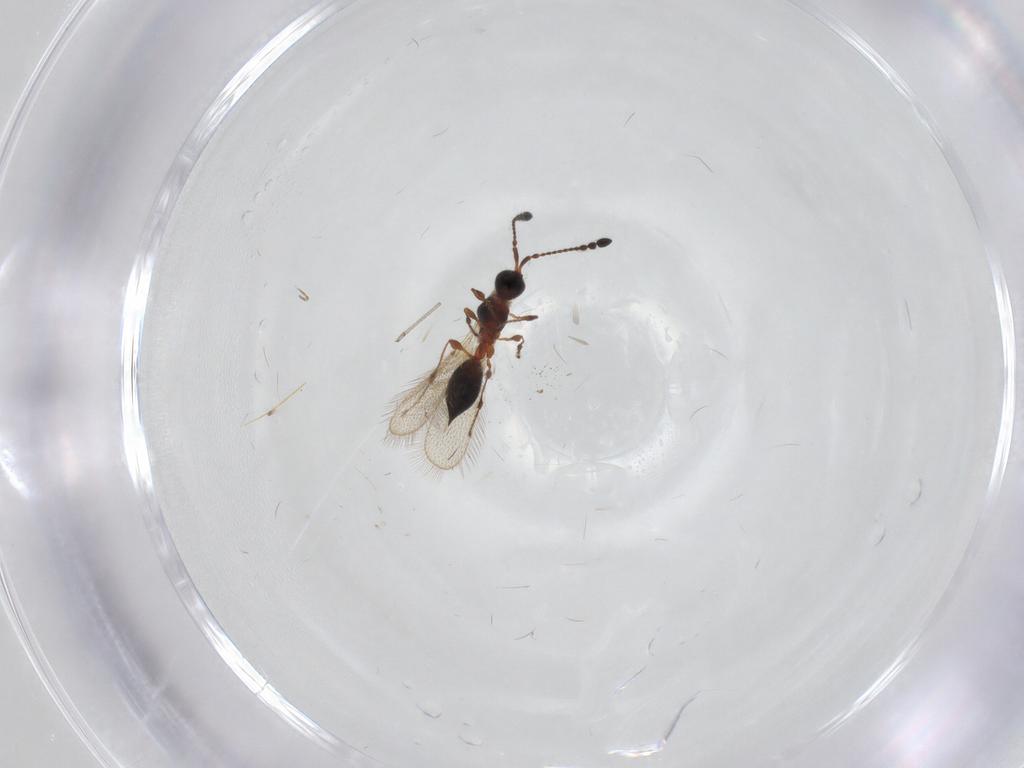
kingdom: Animalia
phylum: Arthropoda
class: Insecta
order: Hymenoptera
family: Diapriidae
